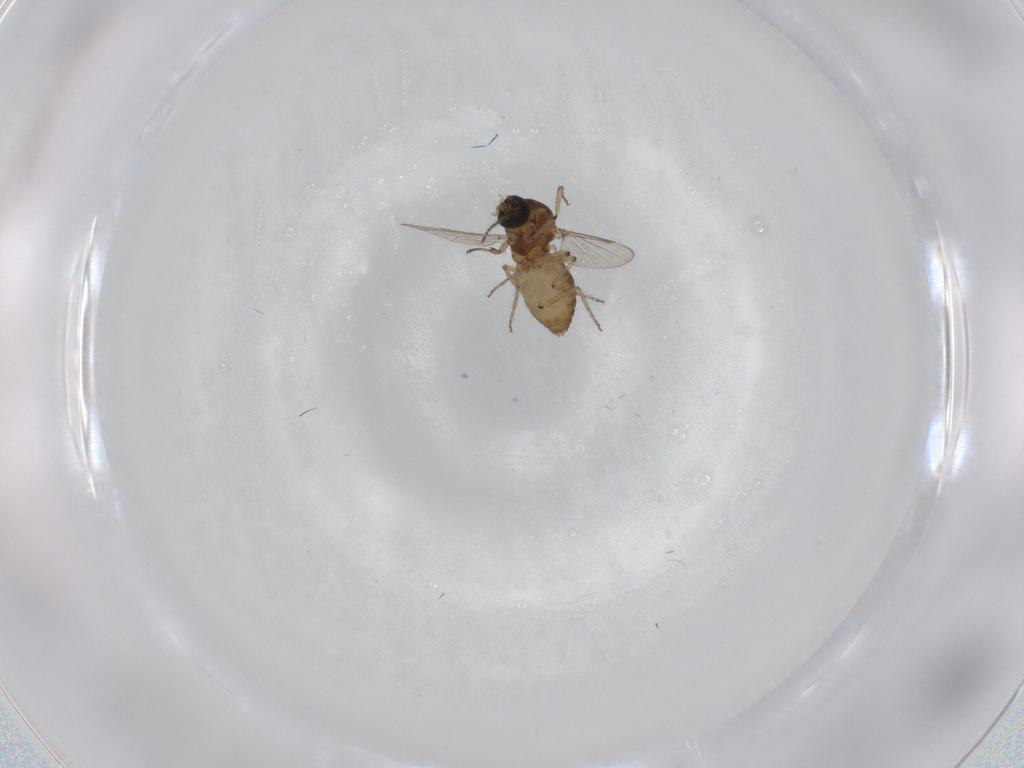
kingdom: Animalia
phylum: Arthropoda
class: Insecta
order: Diptera
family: Ceratopogonidae
